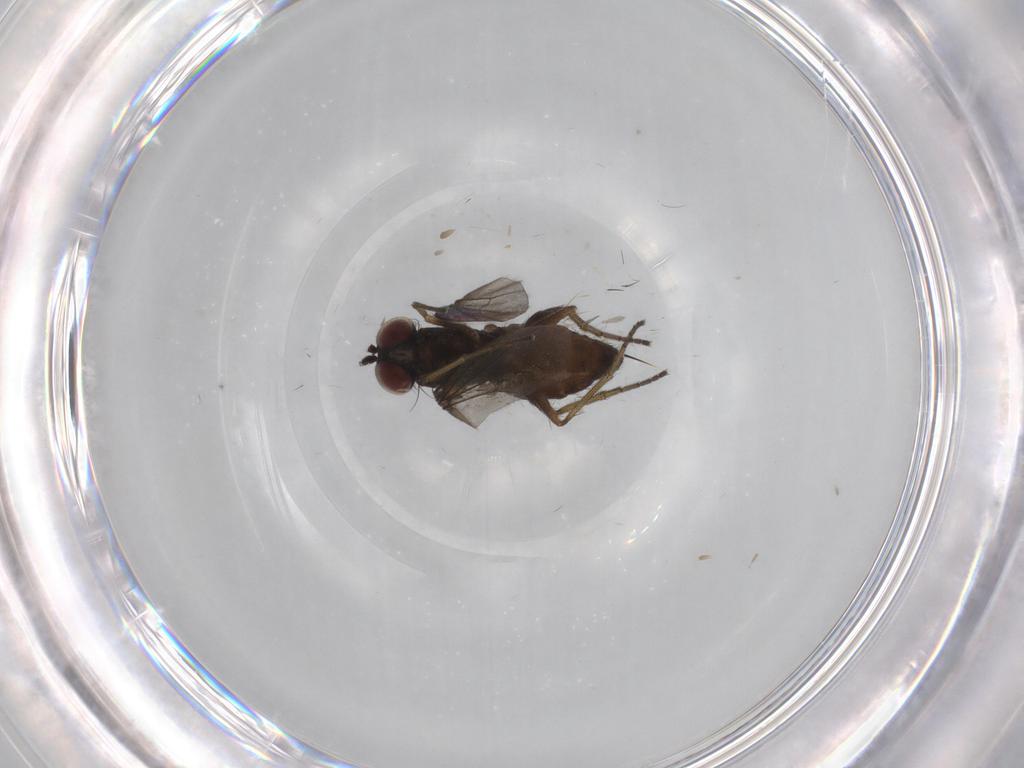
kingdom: Animalia
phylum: Arthropoda
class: Insecta
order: Diptera
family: Dolichopodidae
